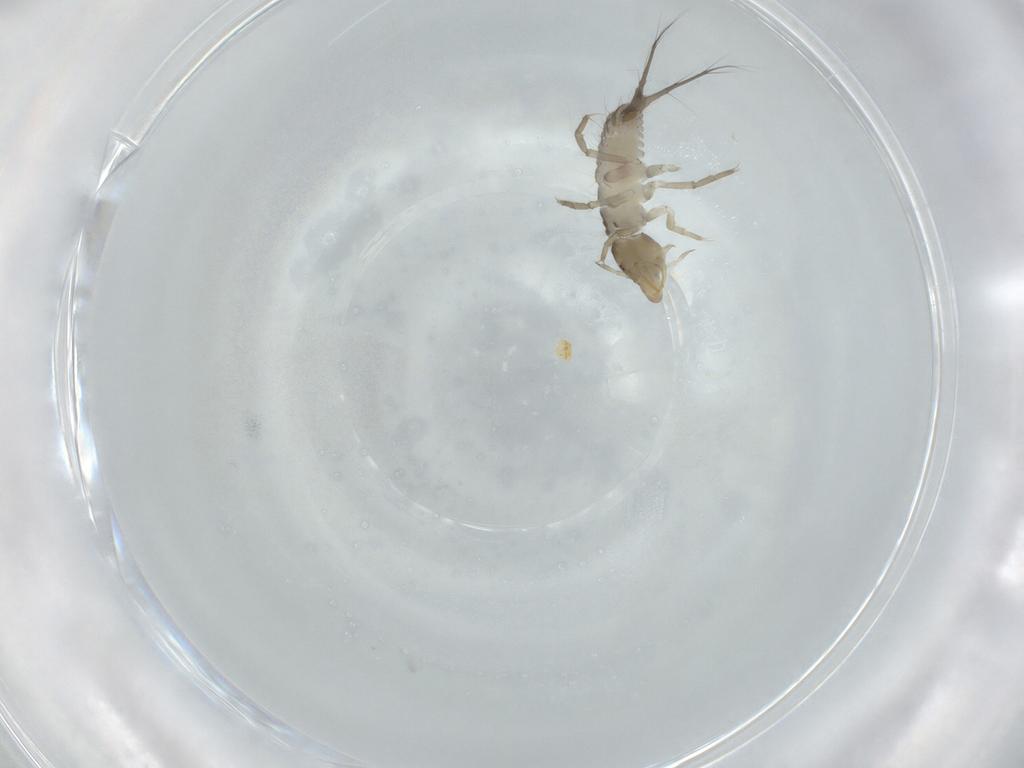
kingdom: Animalia
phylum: Arthropoda
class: Insecta
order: Coleoptera
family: Dytiscidae
